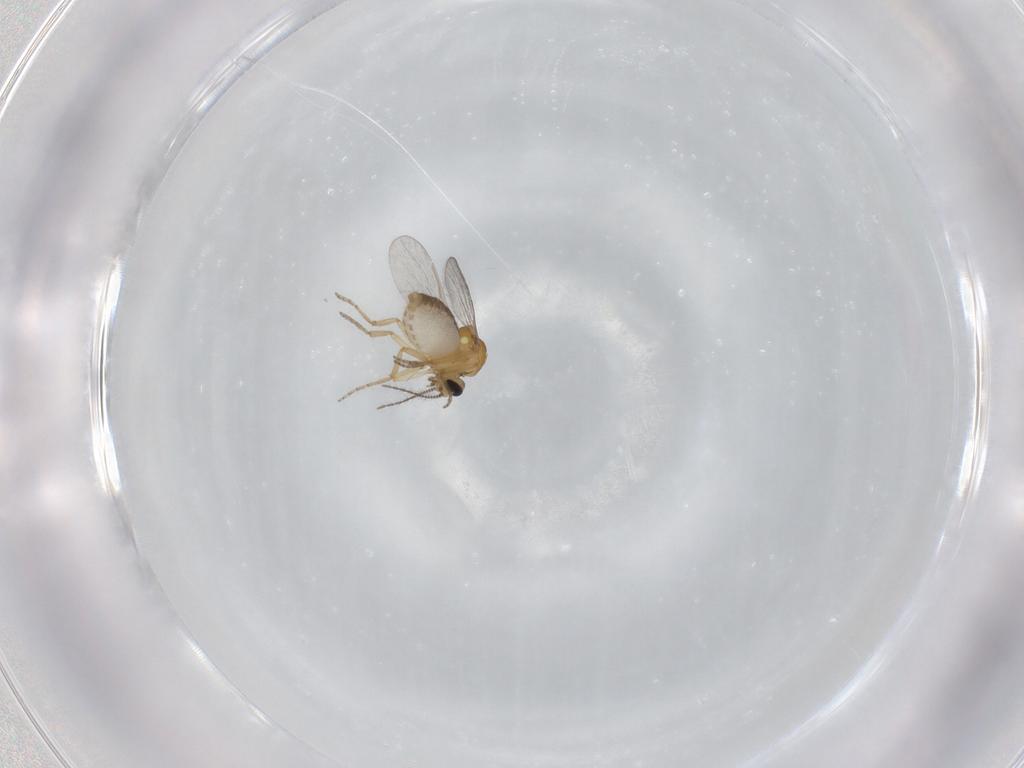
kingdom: Animalia
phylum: Arthropoda
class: Insecta
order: Diptera
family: Ceratopogonidae
